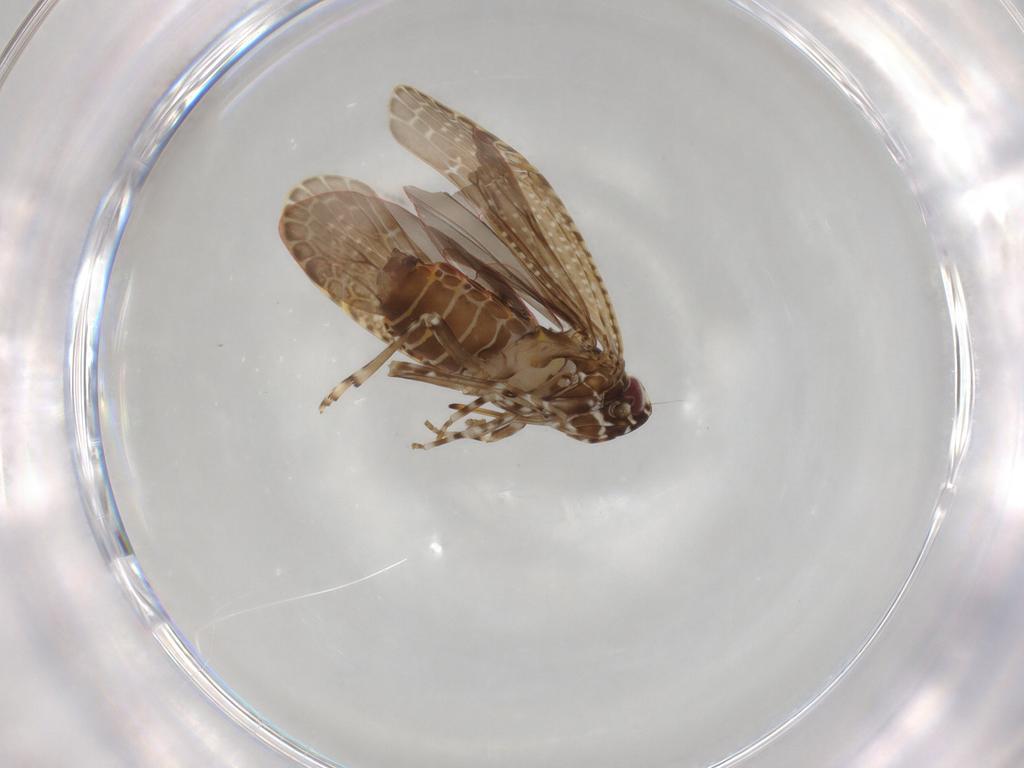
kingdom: Animalia
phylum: Arthropoda
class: Insecta
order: Hemiptera
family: Achilidae
